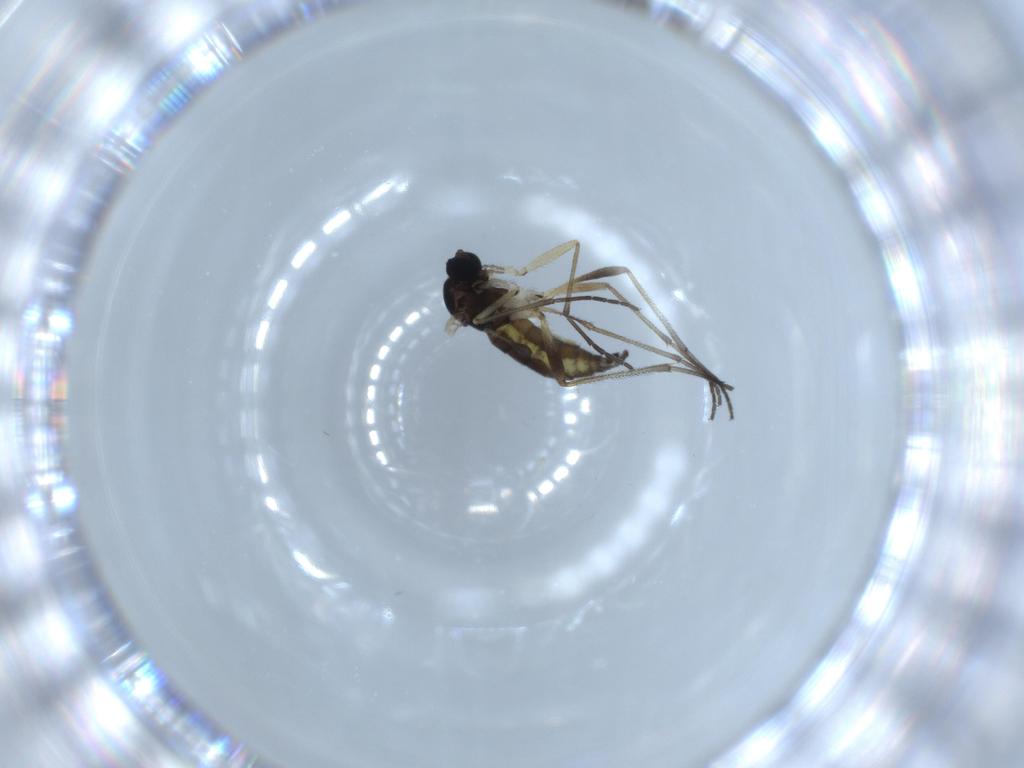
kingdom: Animalia
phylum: Arthropoda
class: Insecta
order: Diptera
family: Sciaridae
